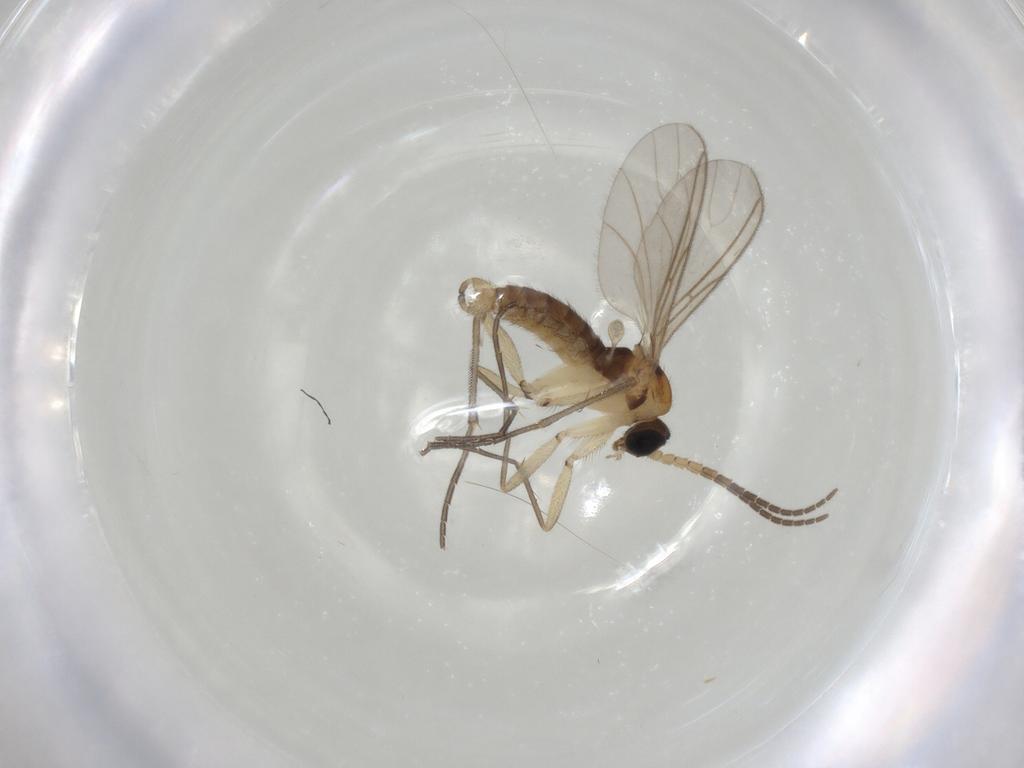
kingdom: Animalia
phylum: Arthropoda
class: Insecta
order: Diptera
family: Sciaridae
